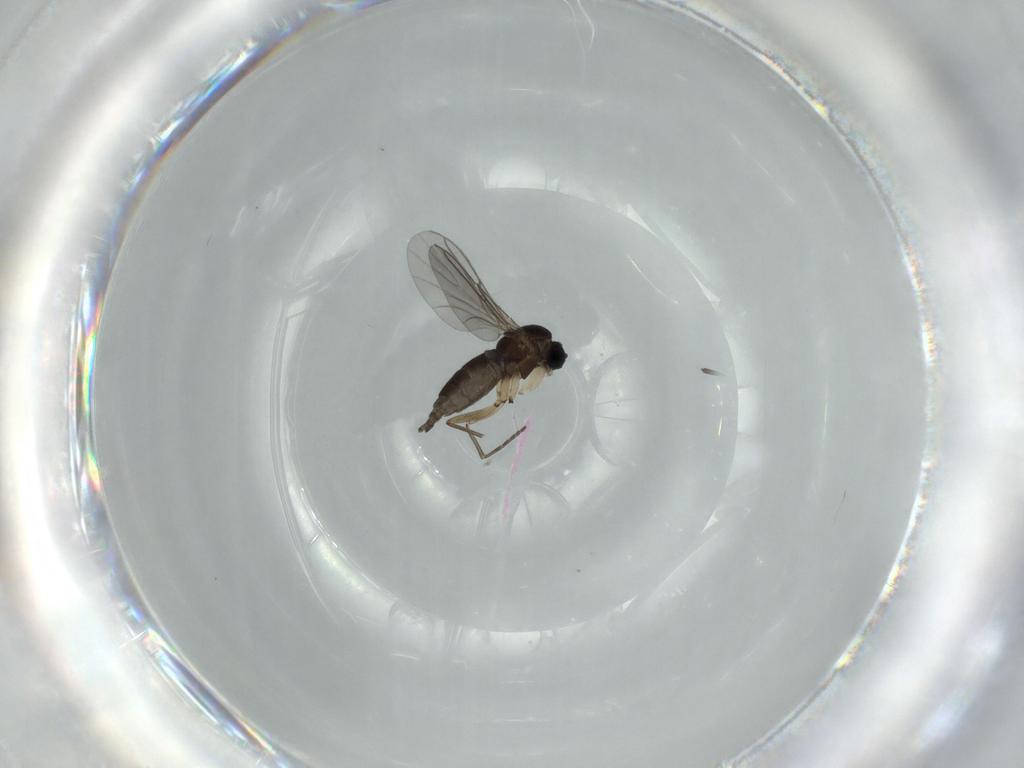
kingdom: Animalia
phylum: Arthropoda
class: Insecta
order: Diptera
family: Sciaridae
